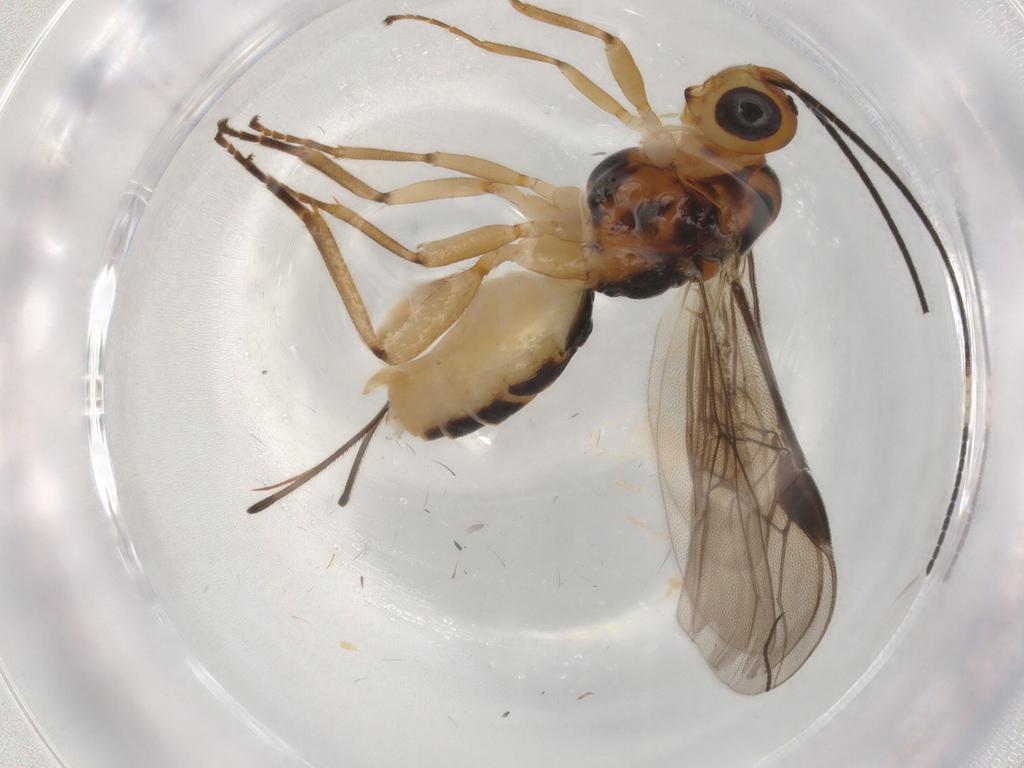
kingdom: Animalia
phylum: Arthropoda
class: Insecta
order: Hymenoptera
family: Braconidae
